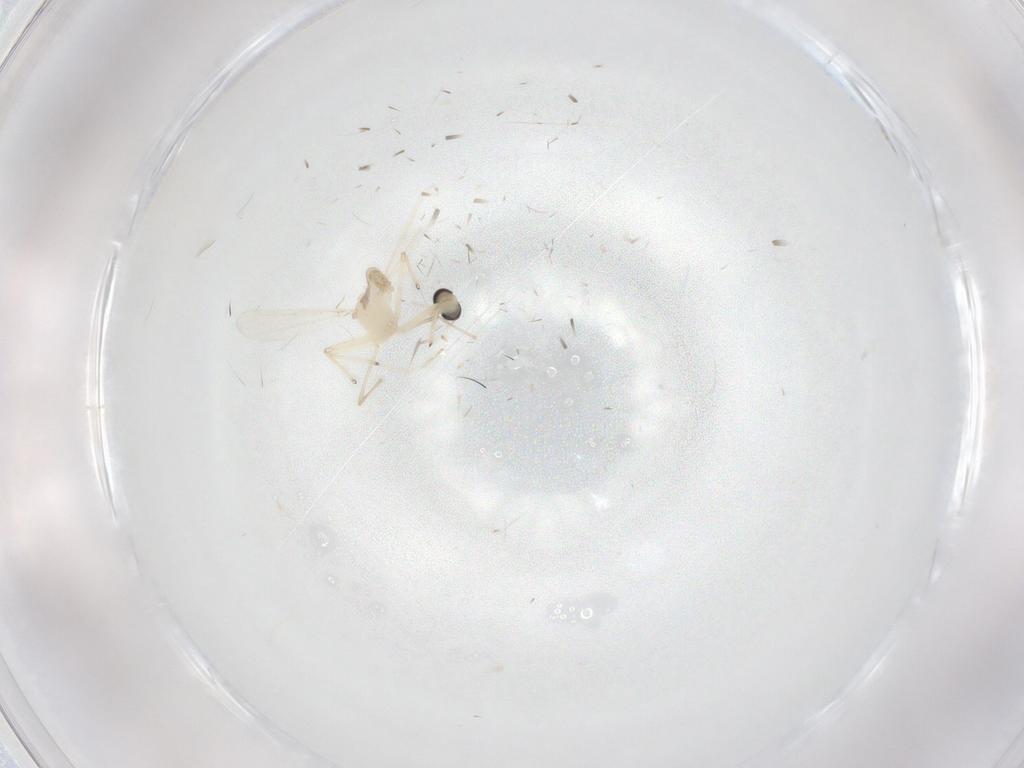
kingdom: Animalia
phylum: Arthropoda
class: Insecta
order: Diptera
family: Chironomidae
